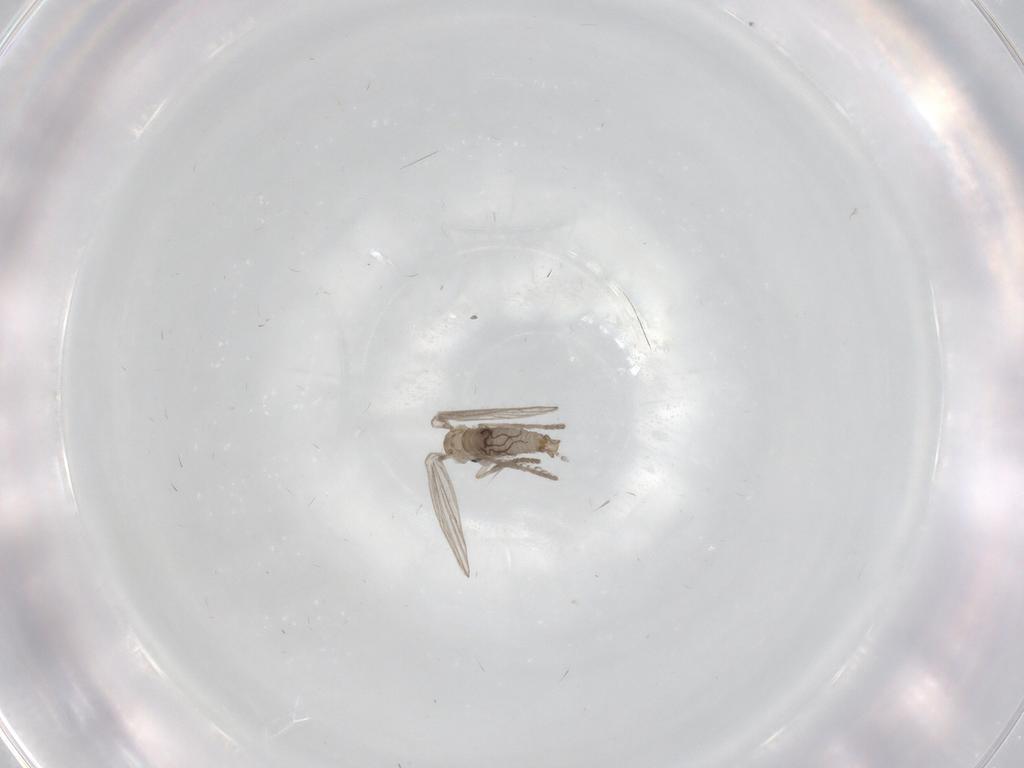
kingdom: Animalia
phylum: Arthropoda
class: Insecta
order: Diptera
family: Psychodidae
